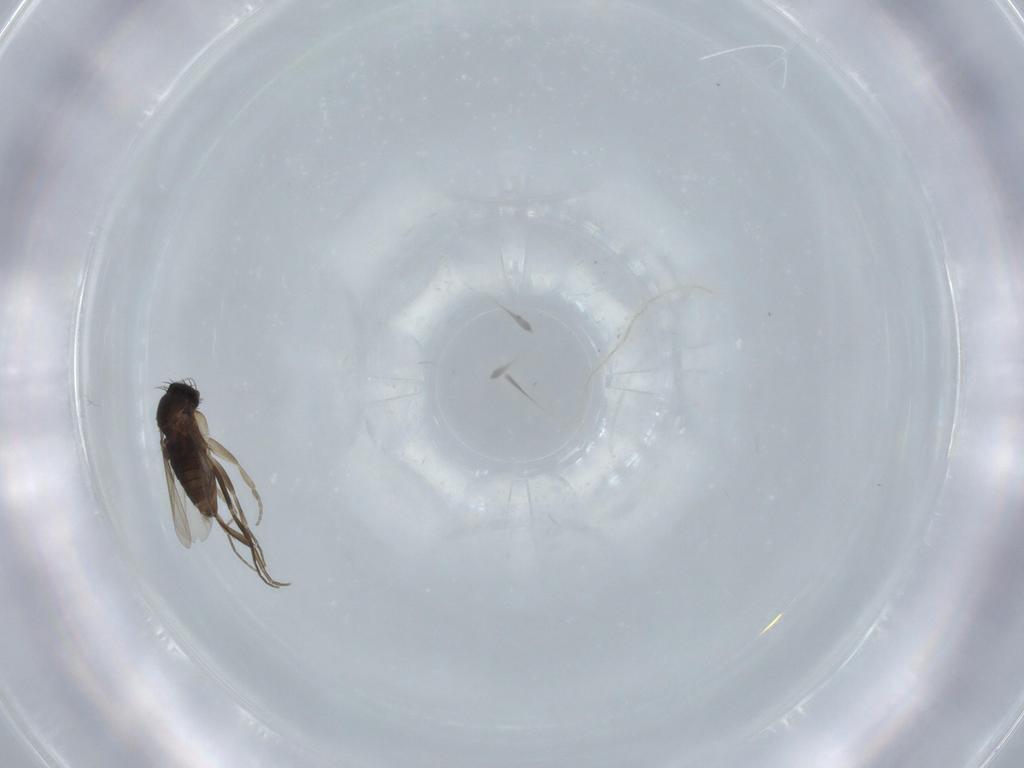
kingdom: Animalia
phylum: Arthropoda
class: Insecta
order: Diptera
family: Phoridae
